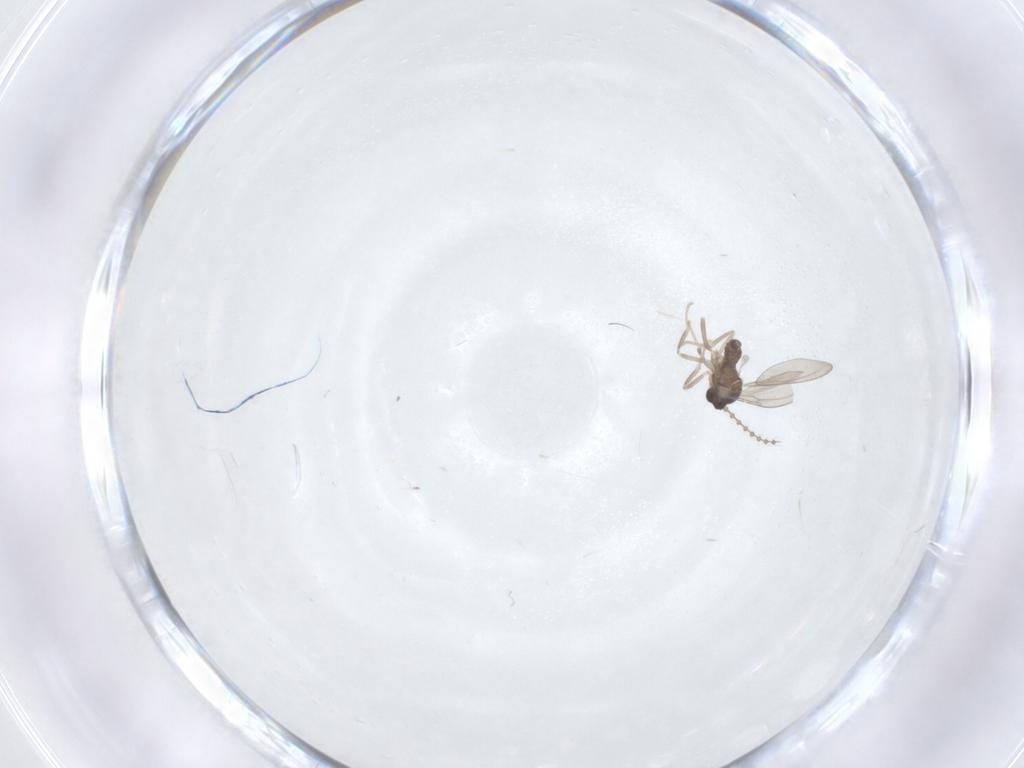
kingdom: Animalia
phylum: Arthropoda
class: Insecta
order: Diptera
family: Cecidomyiidae
